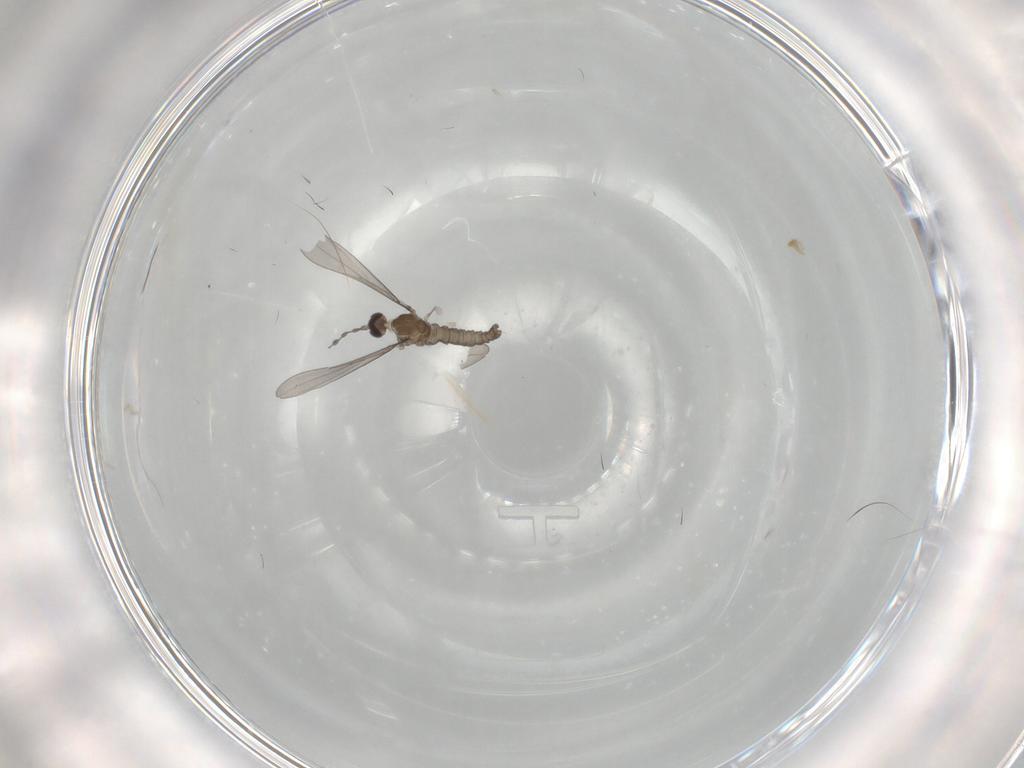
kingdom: Animalia
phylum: Arthropoda
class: Insecta
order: Diptera
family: Cecidomyiidae
